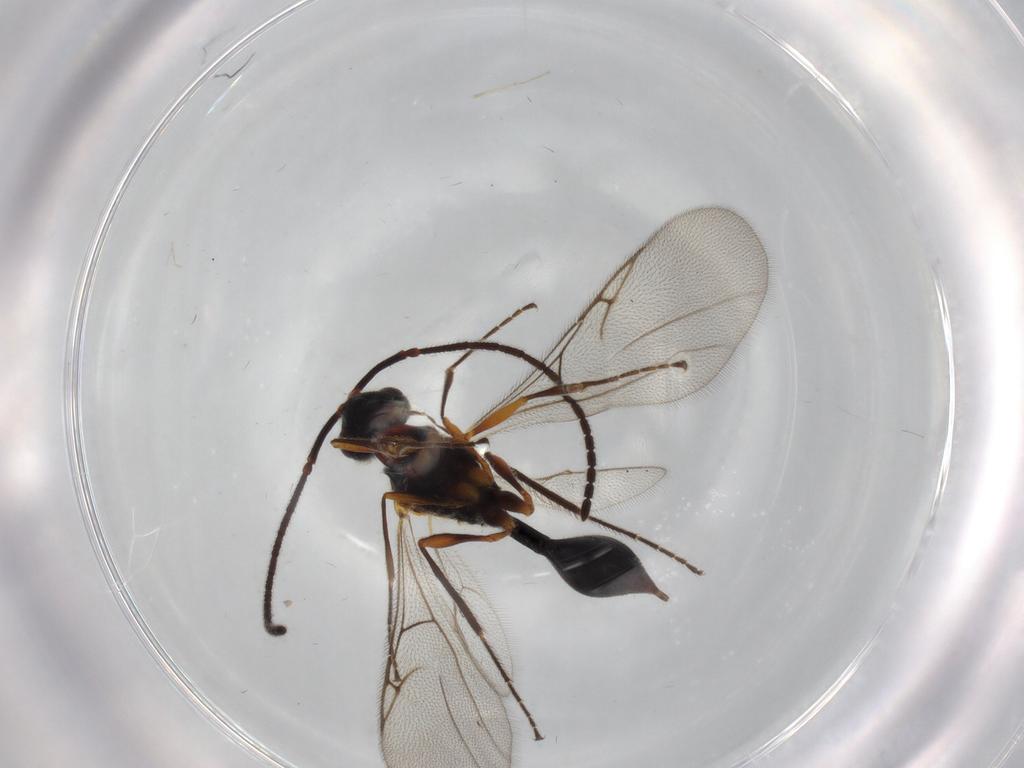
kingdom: Animalia
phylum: Arthropoda
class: Insecta
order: Hymenoptera
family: Diapriidae
